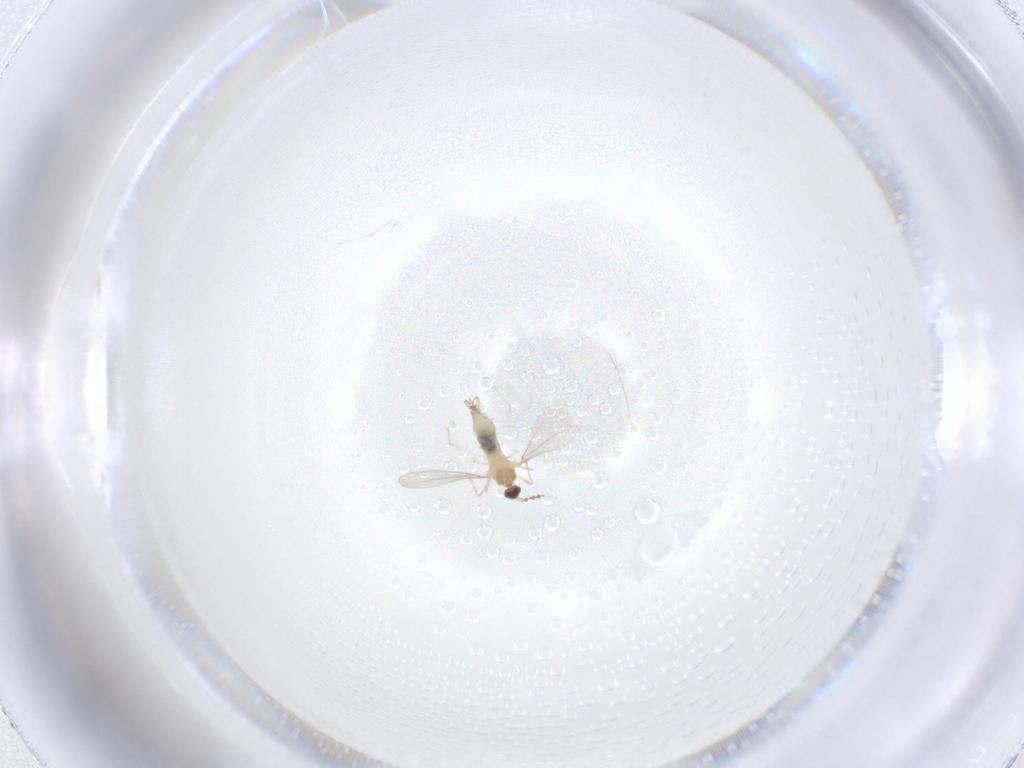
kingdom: Animalia
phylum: Arthropoda
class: Insecta
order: Diptera
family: Cecidomyiidae
